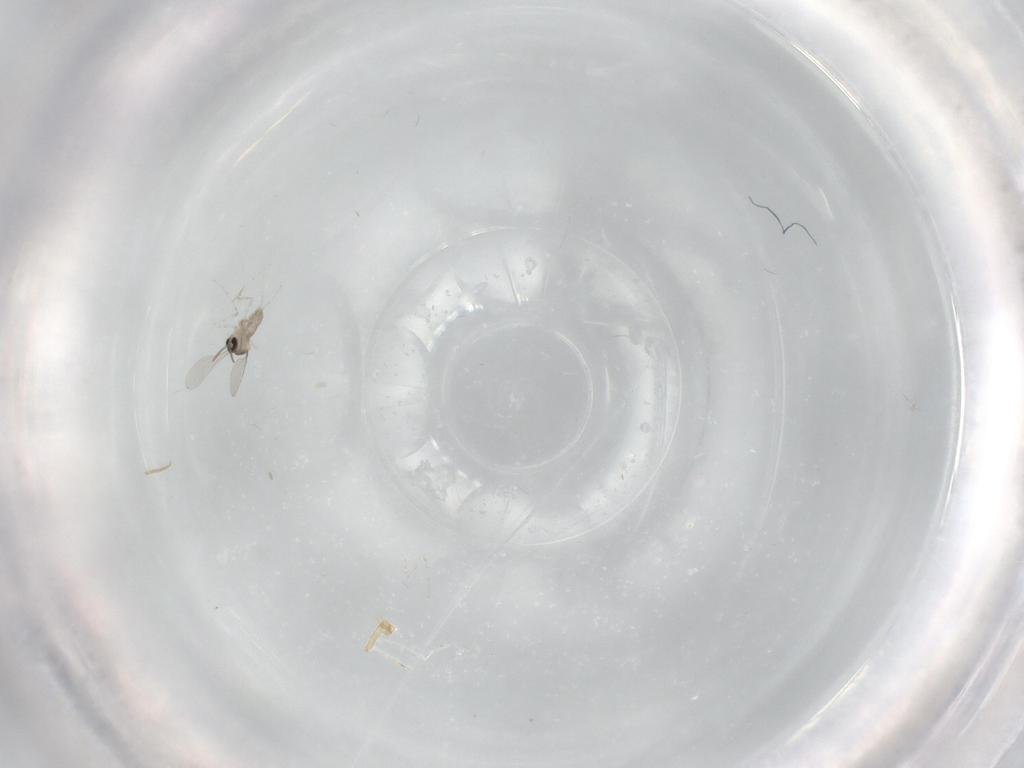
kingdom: Animalia
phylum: Arthropoda
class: Insecta
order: Diptera
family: Cecidomyiidae
